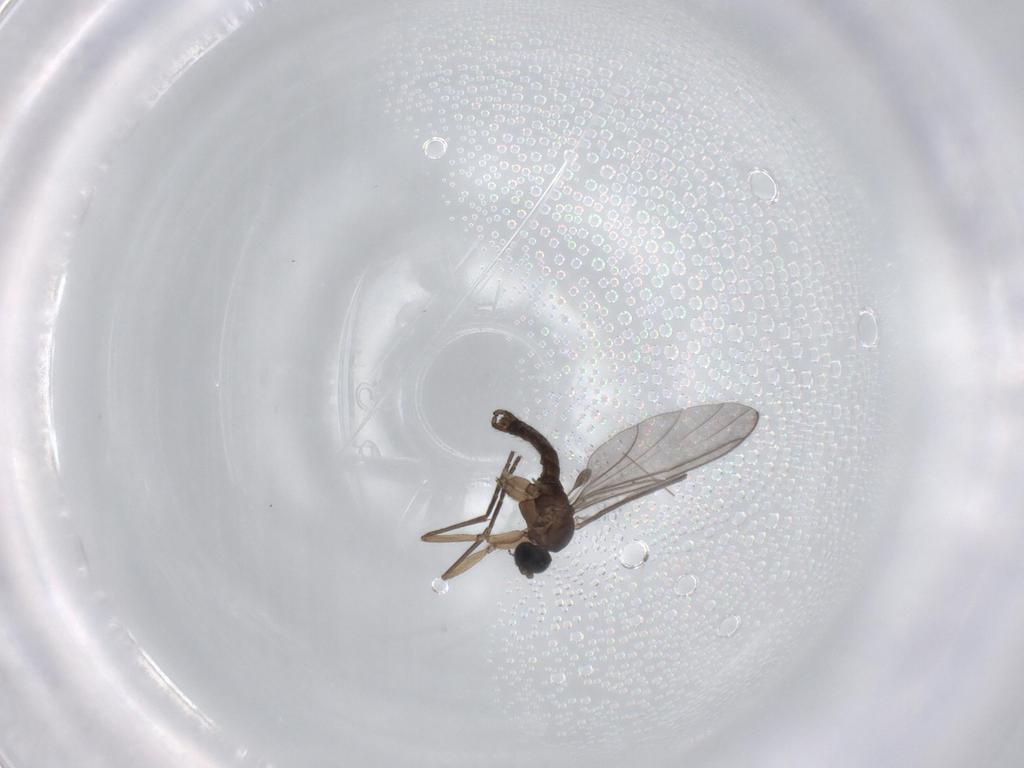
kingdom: Animalia
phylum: Arthropoda
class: Insecta
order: Diptera
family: Sciaridae
